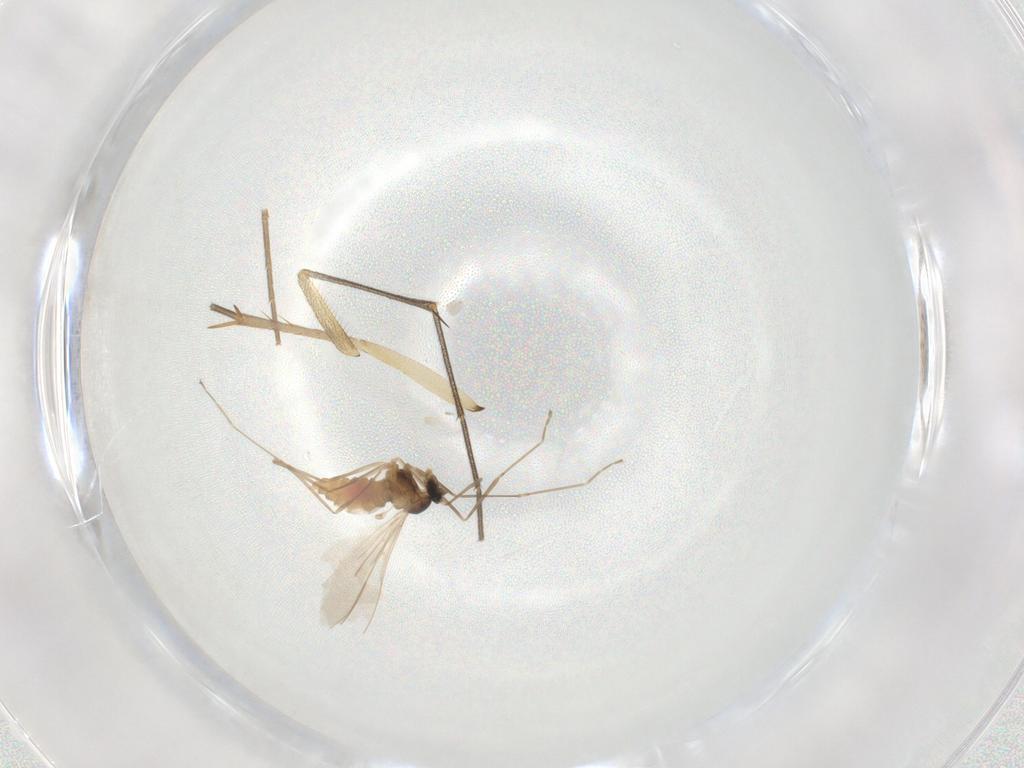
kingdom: Animalia
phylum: Arthropoda
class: Insecta
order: Diptera
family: Cecidomyiidae
